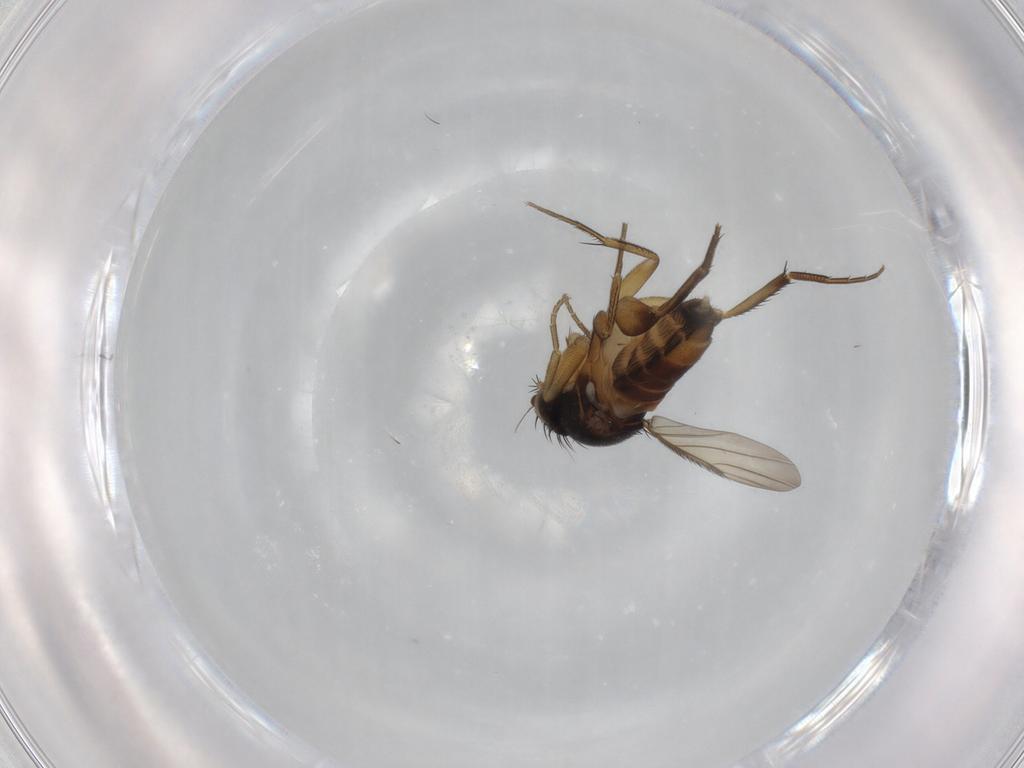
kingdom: Animalia
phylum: Arthropoda
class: Insecta
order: Diptera
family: Phoridae
